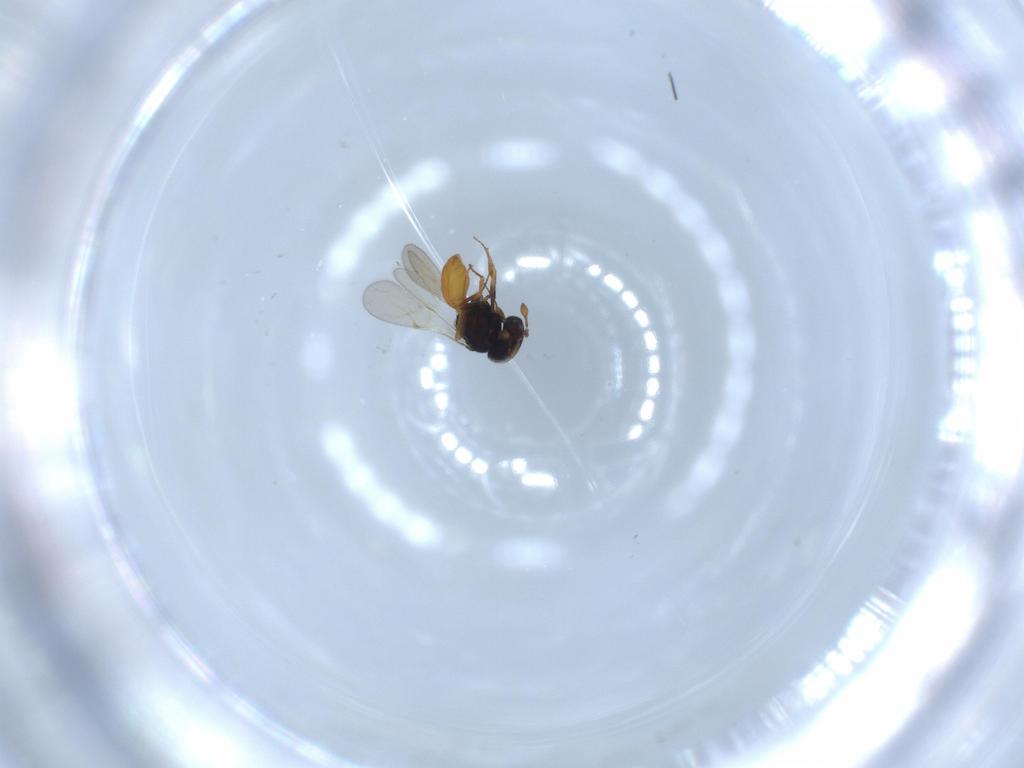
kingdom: Animalia
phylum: Arthropoda
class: Insecta
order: Hymenoptera
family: Scelionidae
